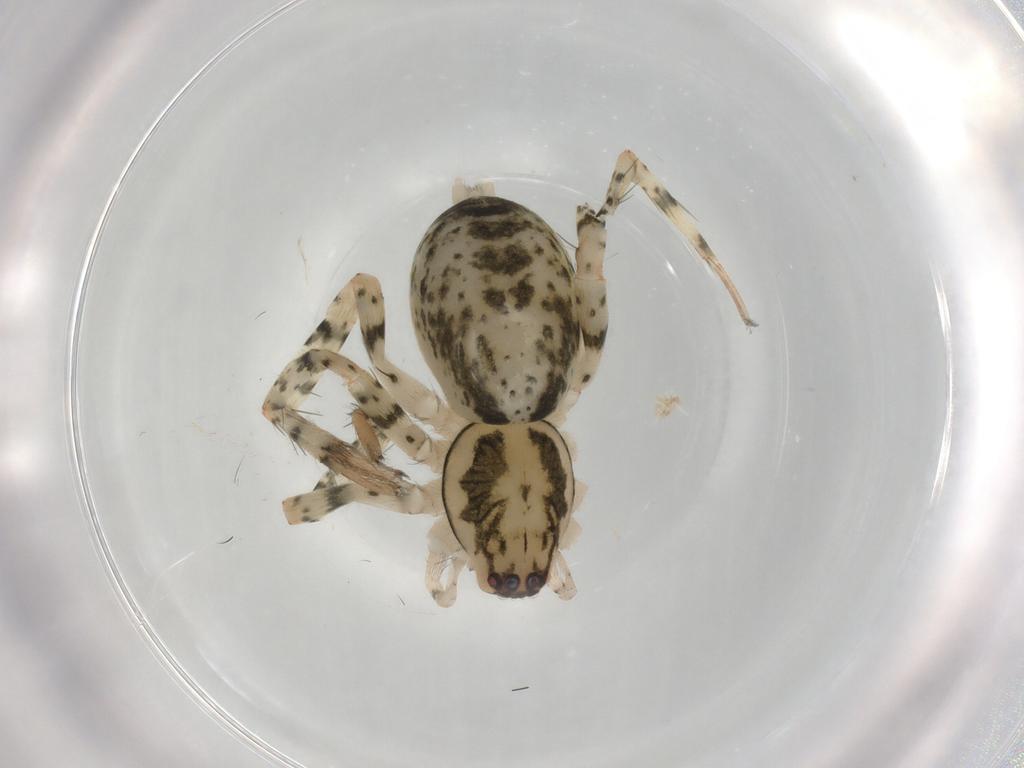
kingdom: Animalia
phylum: Arthropoda
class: Arachnida
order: Araneae
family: Anyphaenidae
